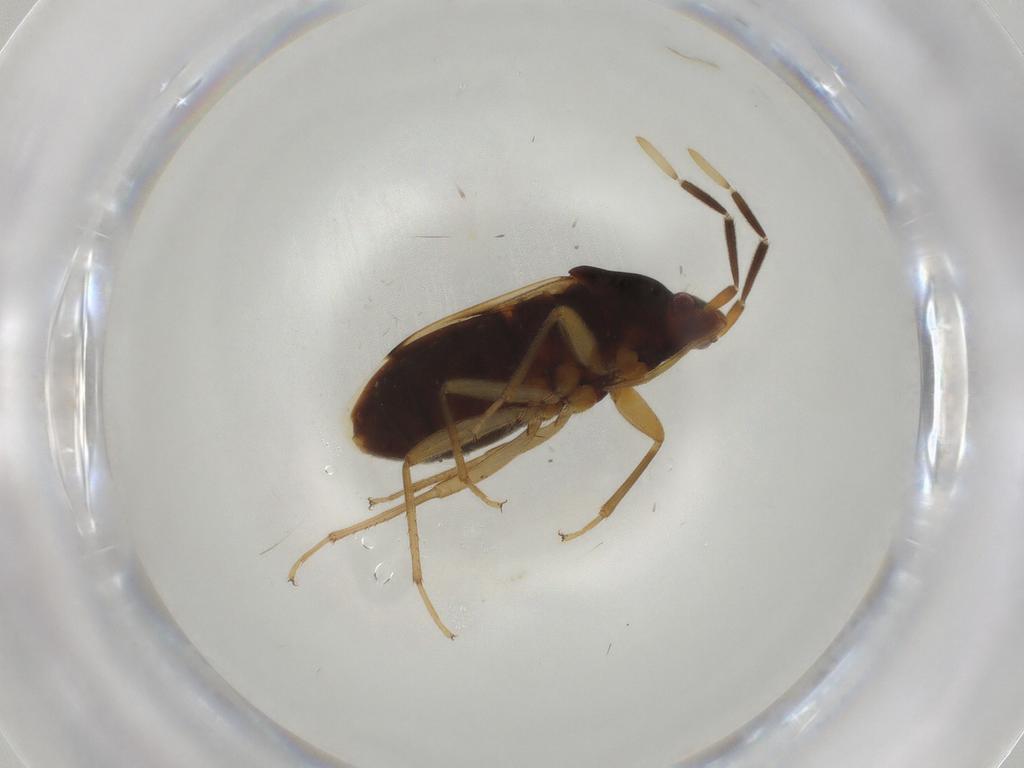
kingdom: Animalia
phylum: Arthropoda
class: Insecta
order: Hemiptera
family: Rhyparochromidae
